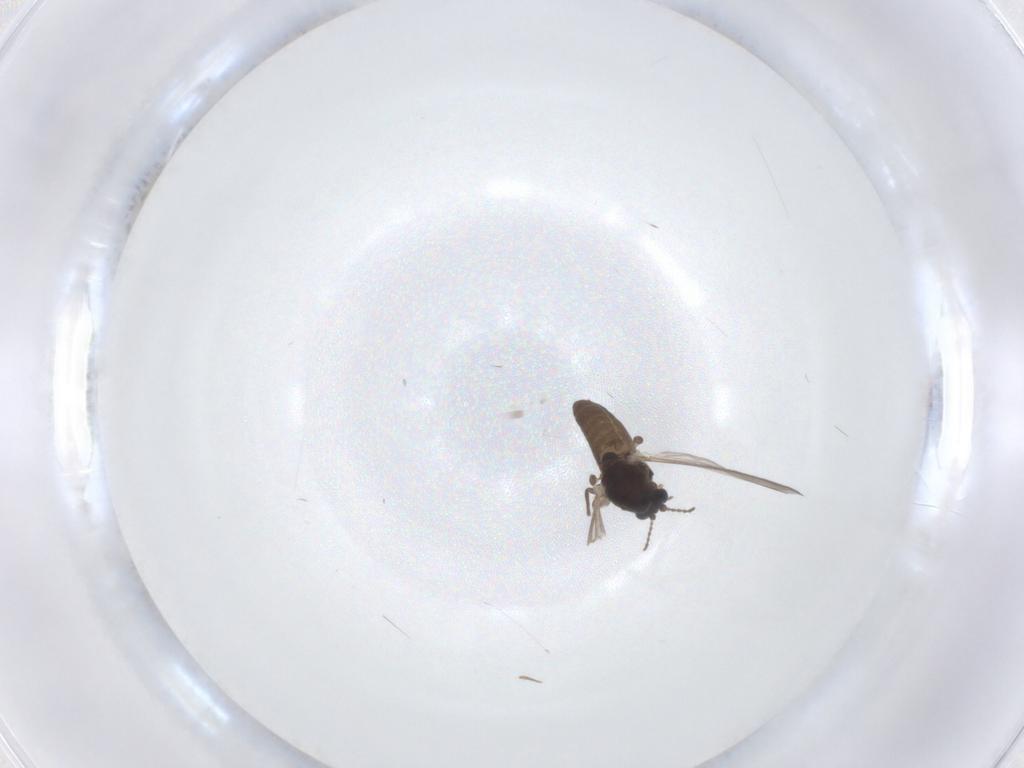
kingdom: Animalia
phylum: Arthropoda
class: Insecta
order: Diptera
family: Chironomidae
